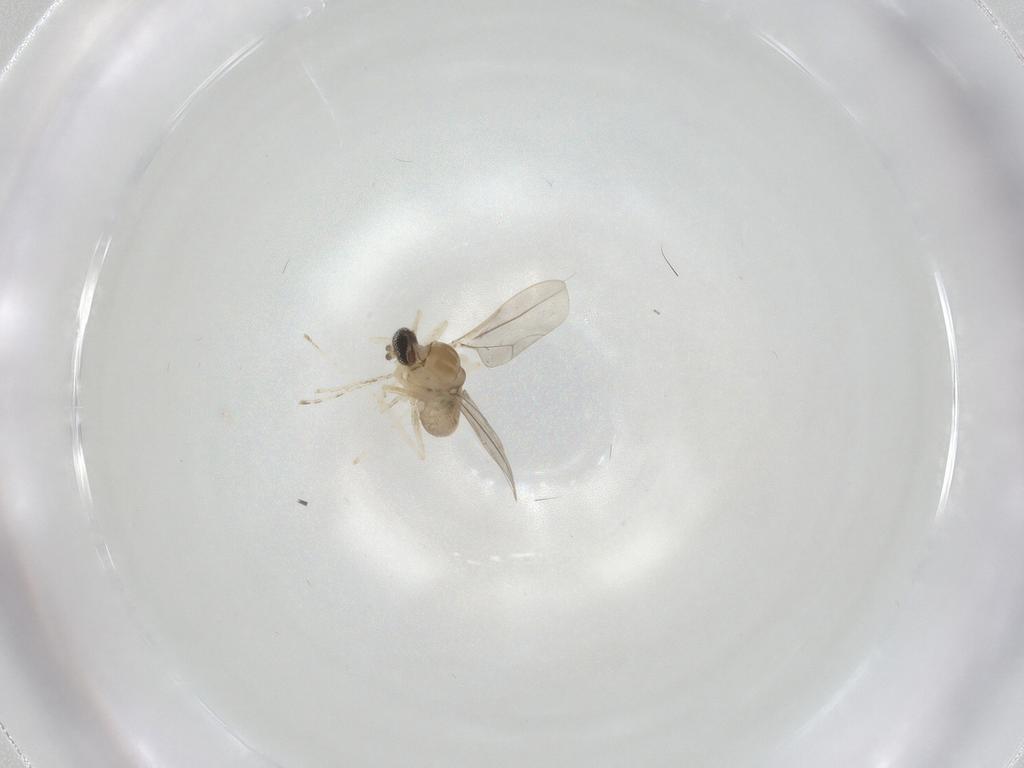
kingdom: Animalia
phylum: Arthropoda
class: Insecta
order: Diptera
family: Cecidomyiidae
